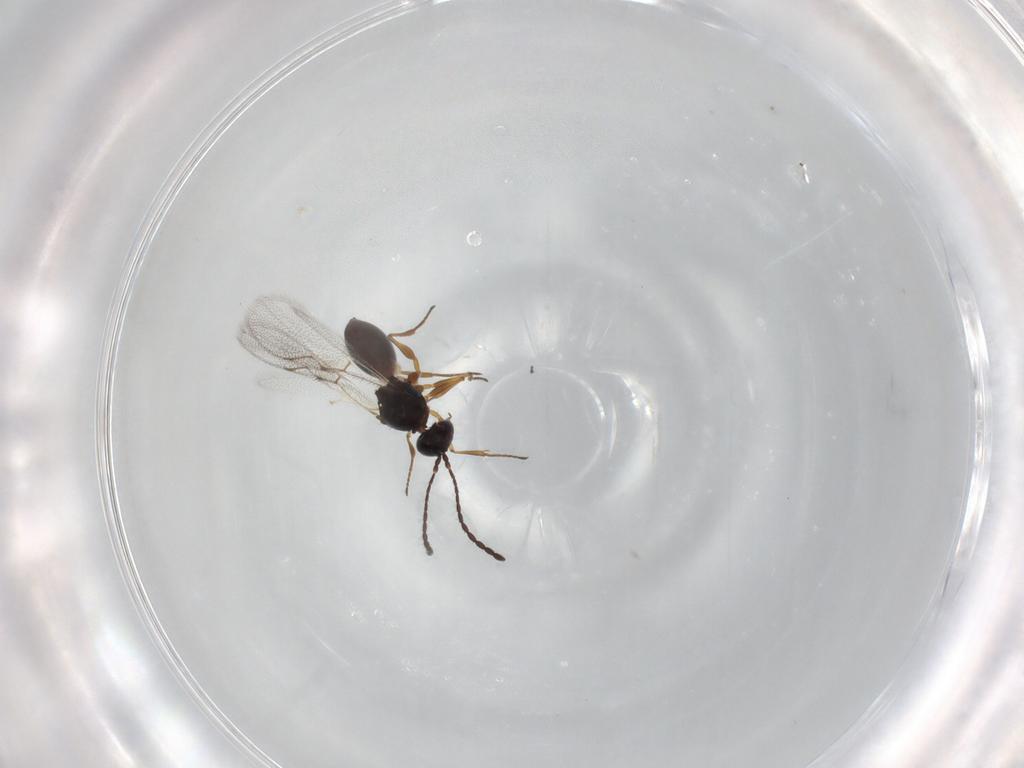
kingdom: Animalia
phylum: Arthropoda
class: Insecta
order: Hymenoptera
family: Figitidae
